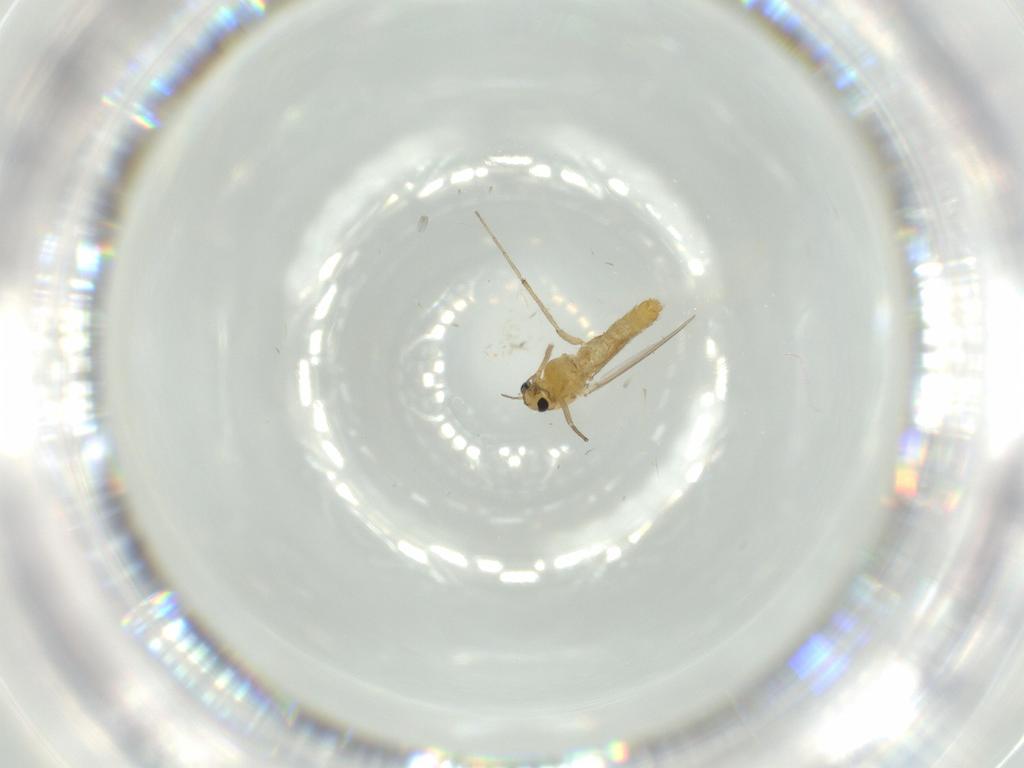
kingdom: Animalia
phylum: Arthropoda
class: Insecta
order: Diptera
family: Chironomidae
